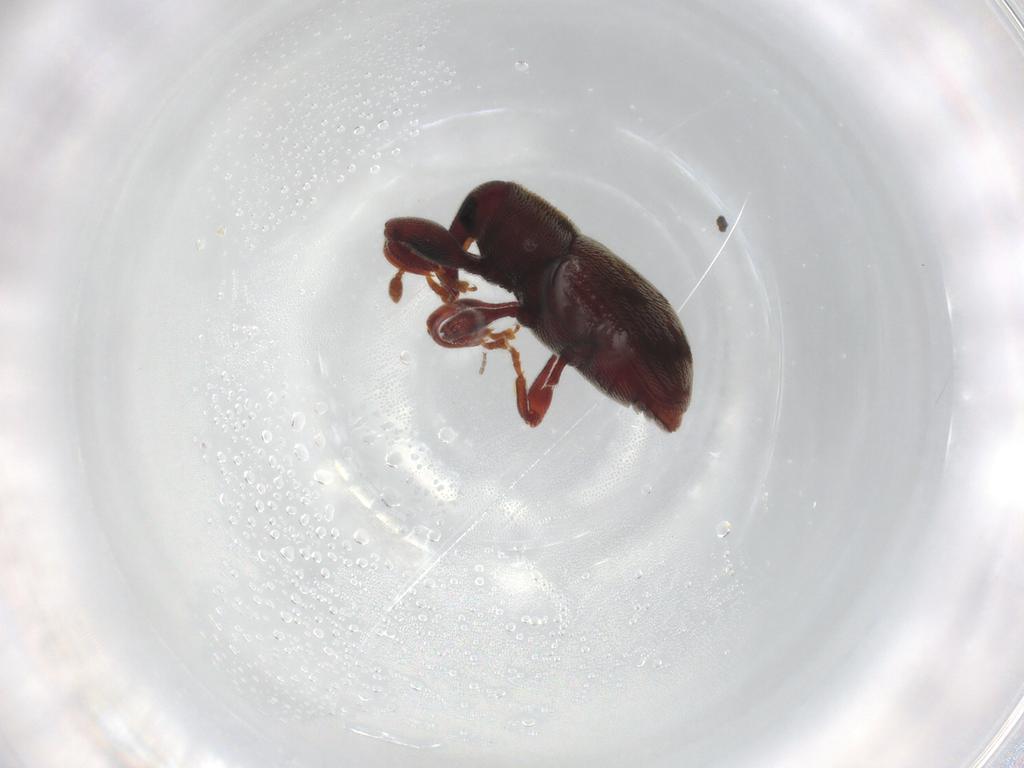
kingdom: Animalia
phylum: Arthropoda
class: Insecta
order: Coleoptera
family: Curculionidae
